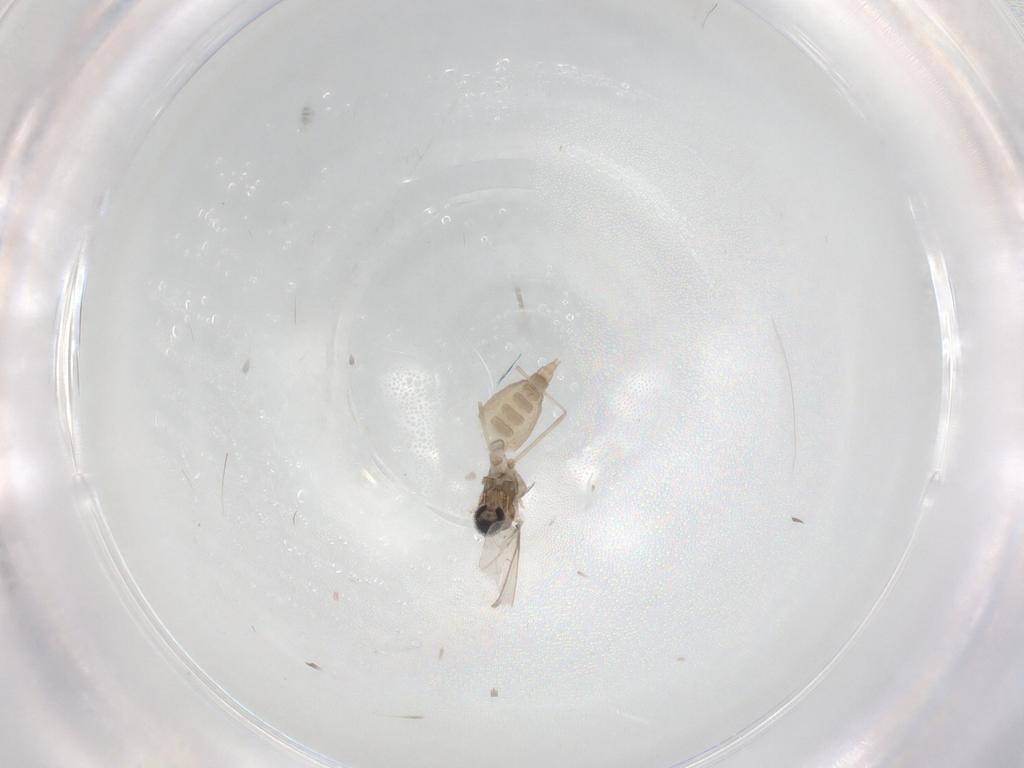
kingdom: Animalia
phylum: Arthropoda
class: Insecta
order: Diptera
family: Cecidomyiidae
